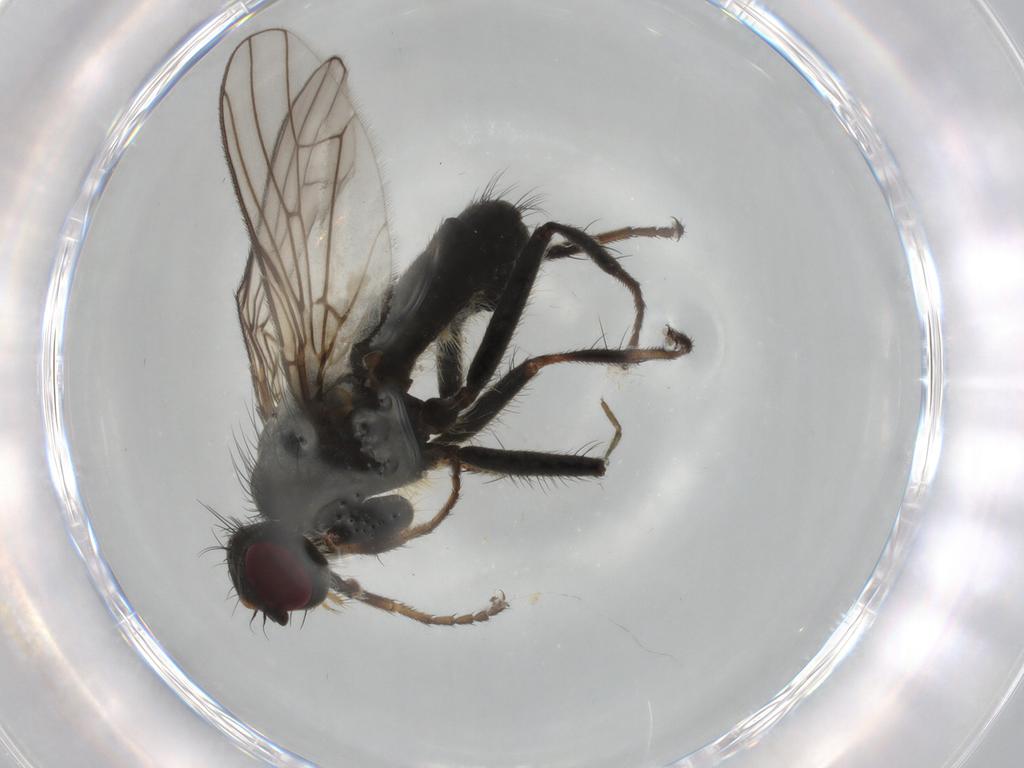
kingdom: Animalia
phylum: Arthropoda
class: Insecta
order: Diptera
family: Scathophagidae
